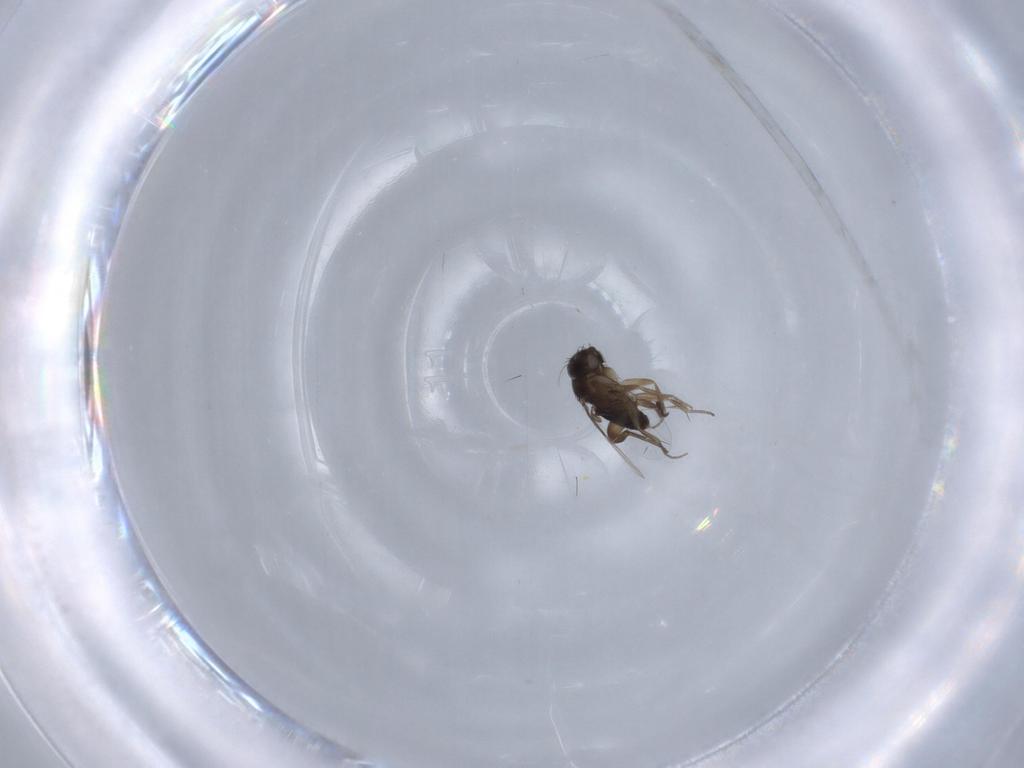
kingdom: Animalia
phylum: Arthropoda
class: Insecta
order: Diptera
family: Phoridae
